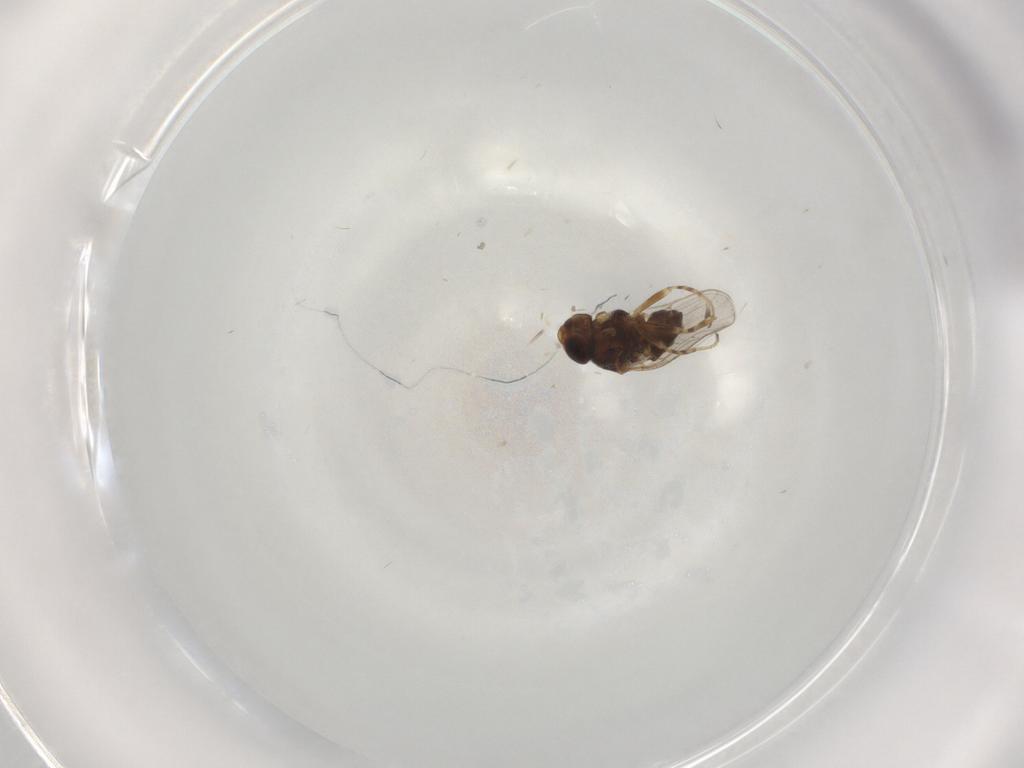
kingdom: Animalia
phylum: Arthropoda
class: Insecta
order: Diptera
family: Chloropidae
